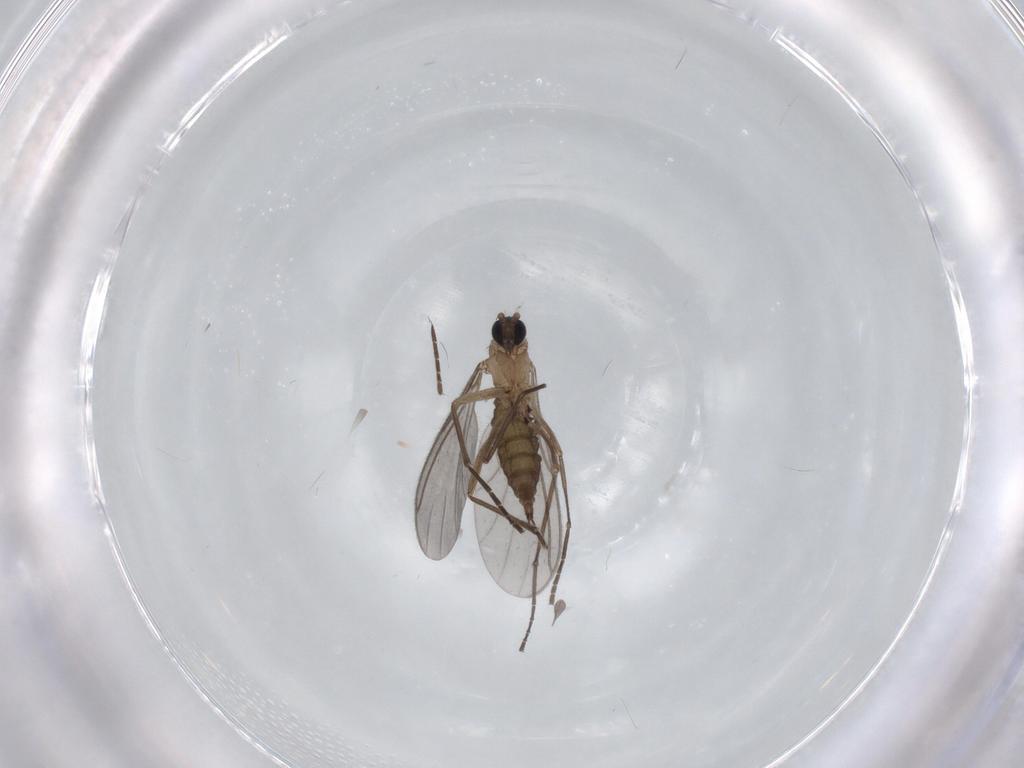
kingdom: Animalia
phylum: Arthropoda
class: Insecta
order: Diptera
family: Sciaridae
